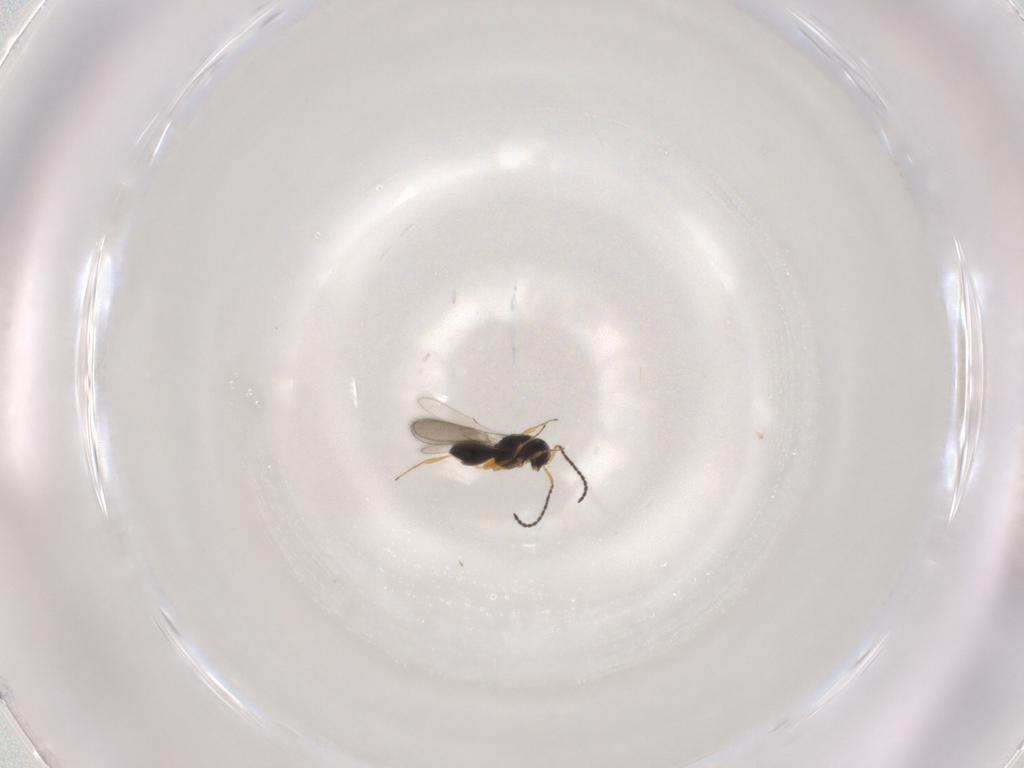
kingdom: Animalia
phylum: Arthropoda
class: Insecta
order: Hymenoptera
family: Scelionidae
